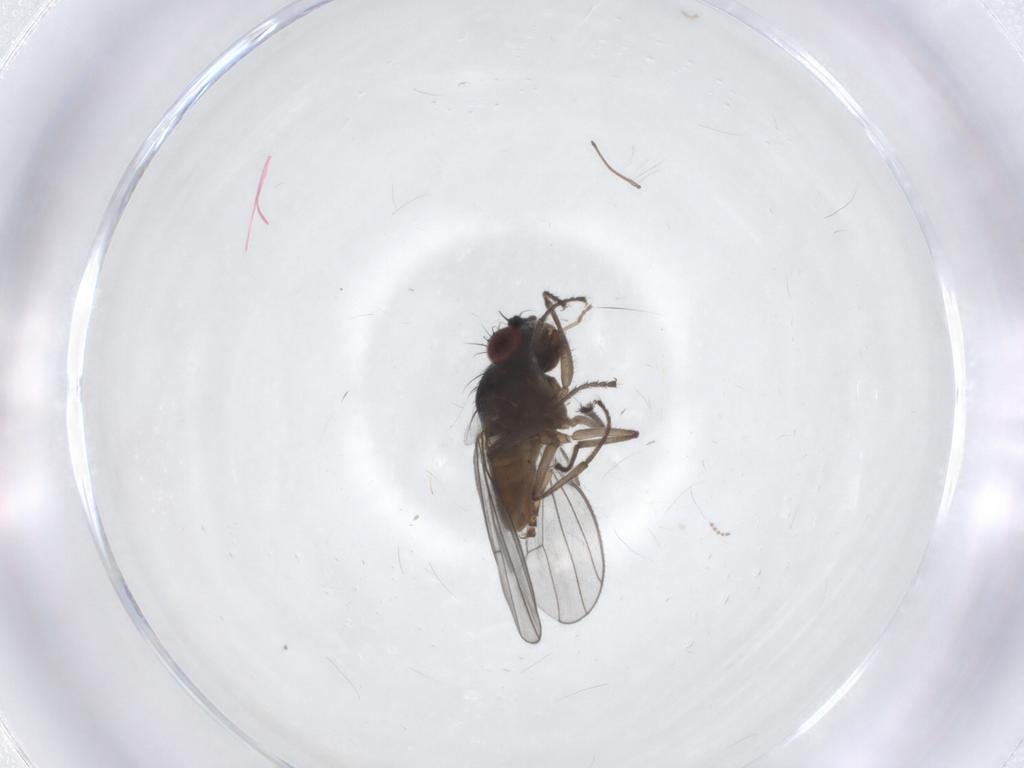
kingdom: Animalia
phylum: Arthropoda
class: Insecta
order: Diptera
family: Ephydridae
